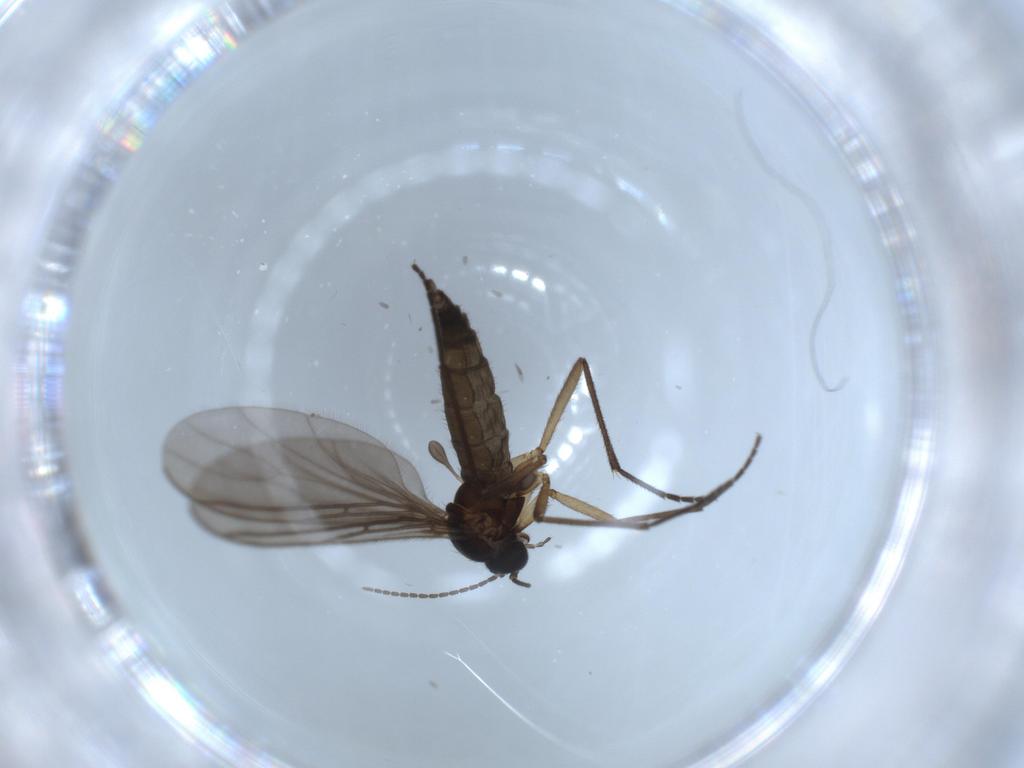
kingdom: Animalia
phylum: Arthropoda
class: Insecta
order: Diptera
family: Sciaridae
